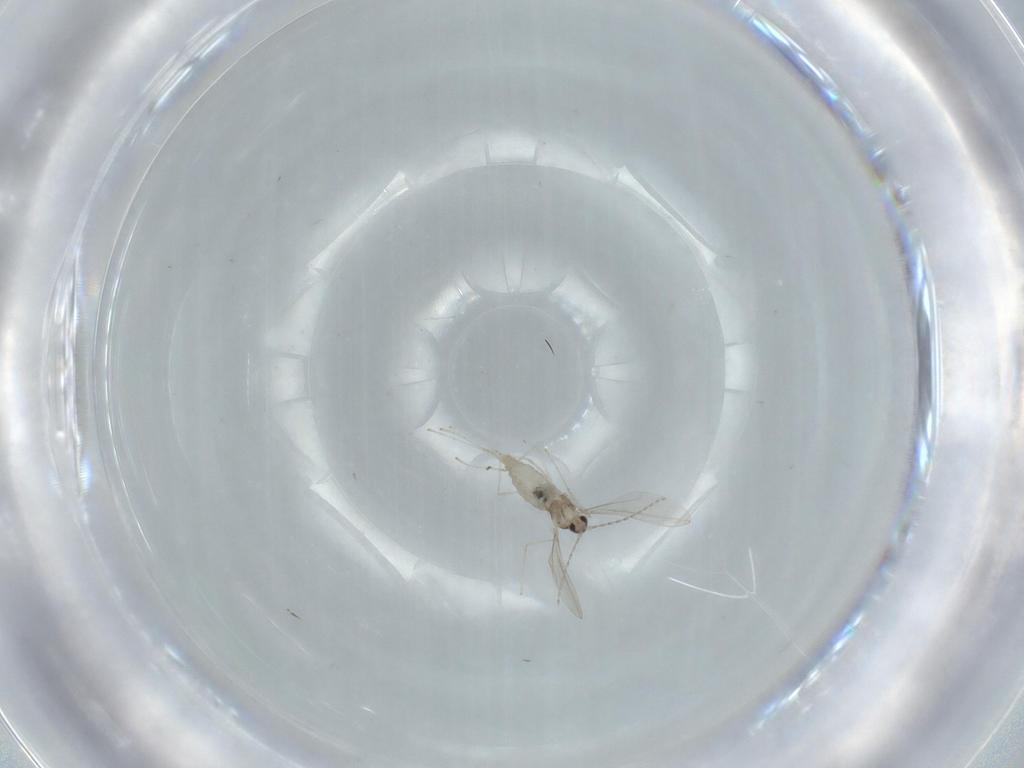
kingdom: Animalia
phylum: Arthropoda
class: Insecta
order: Diptera
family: Cecidomyiidae
